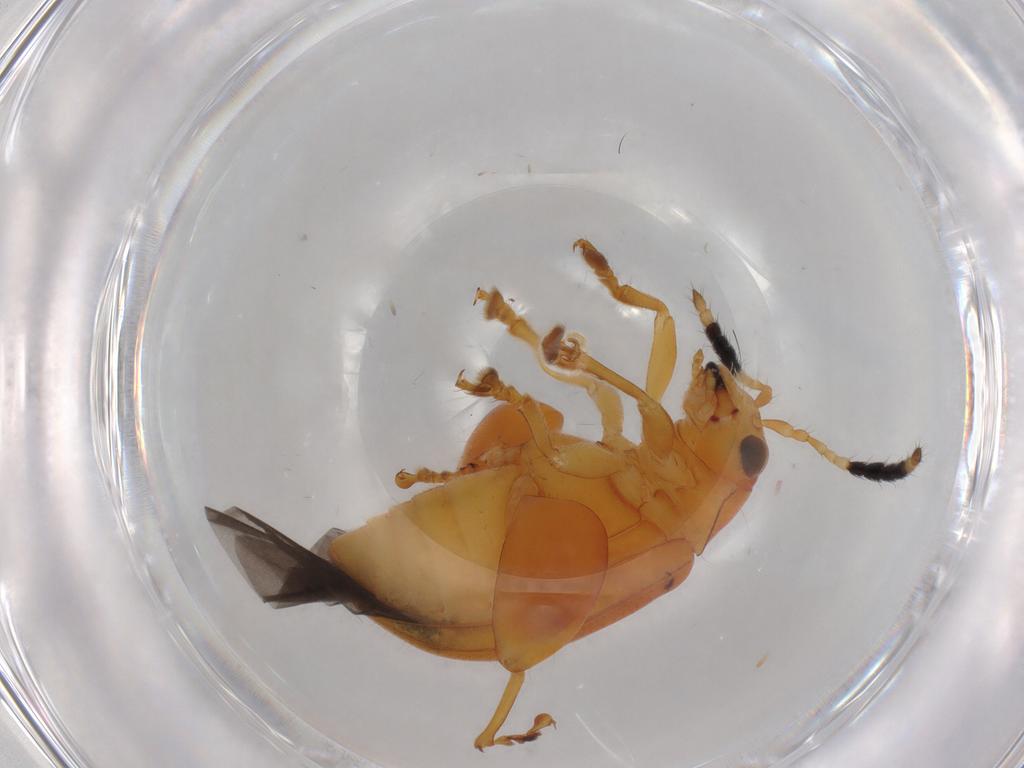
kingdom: Animalia
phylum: Arthropoda
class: Insecta
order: Coleoptera
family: Chrysomelidae
